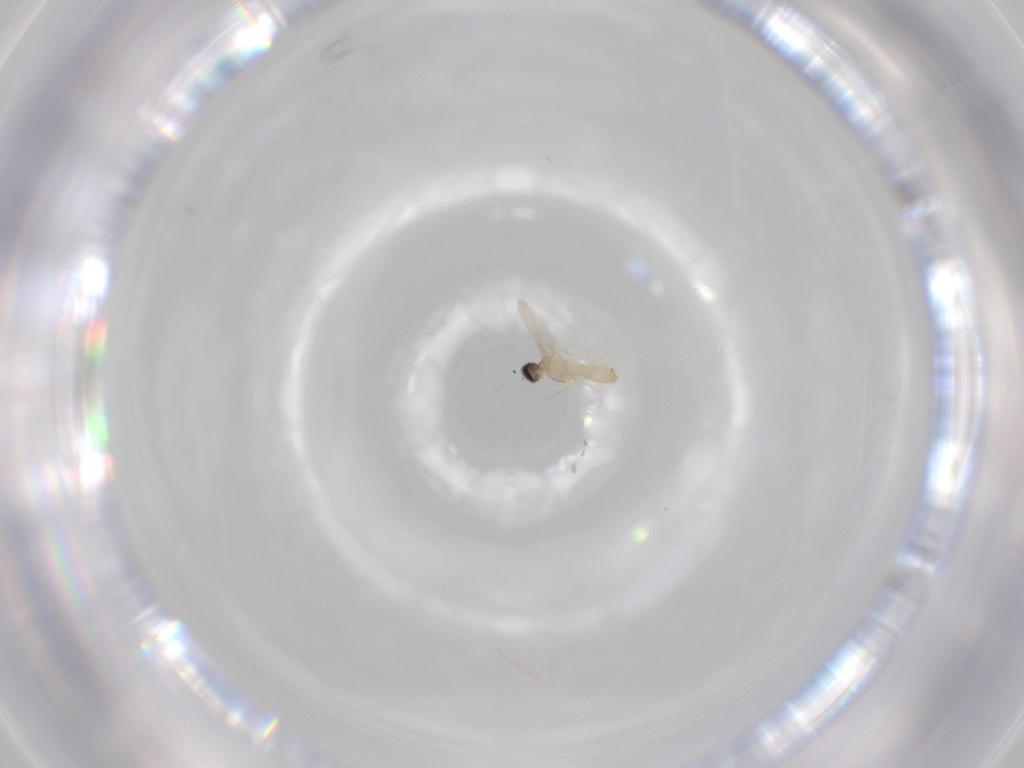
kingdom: Animalia
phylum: Arthropoda
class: Insecta
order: Diptera
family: Cecidomyiidae
